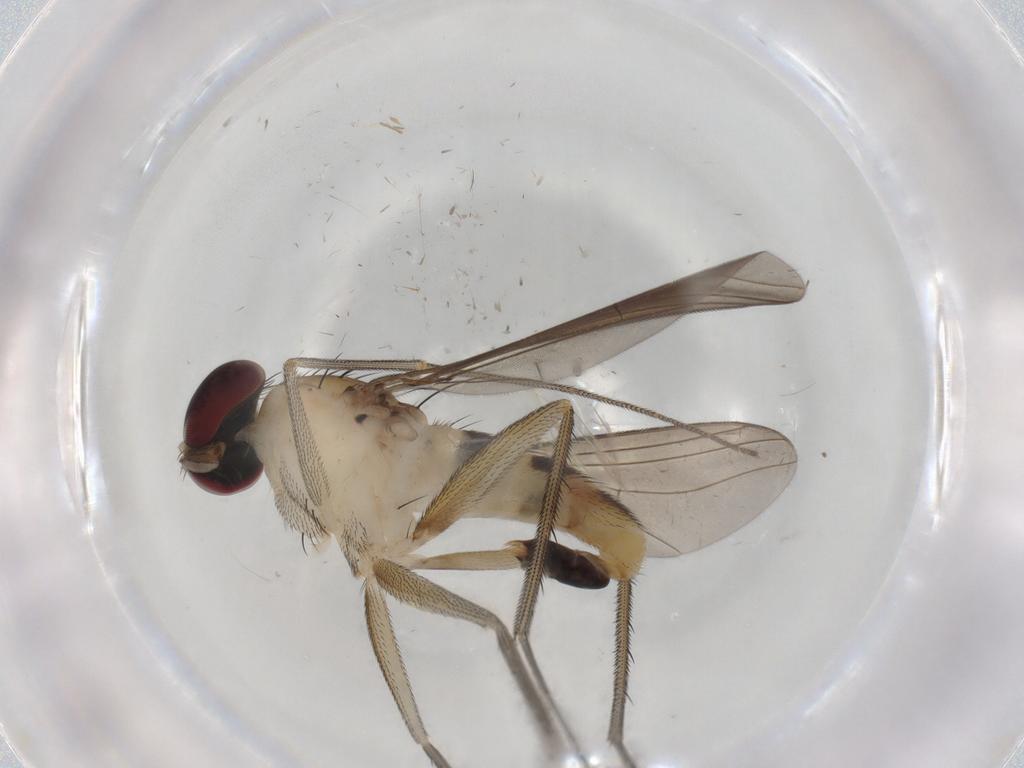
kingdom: Animalia
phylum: Arthropoda
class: Insecta
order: Diptera
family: Dolichopodidae
